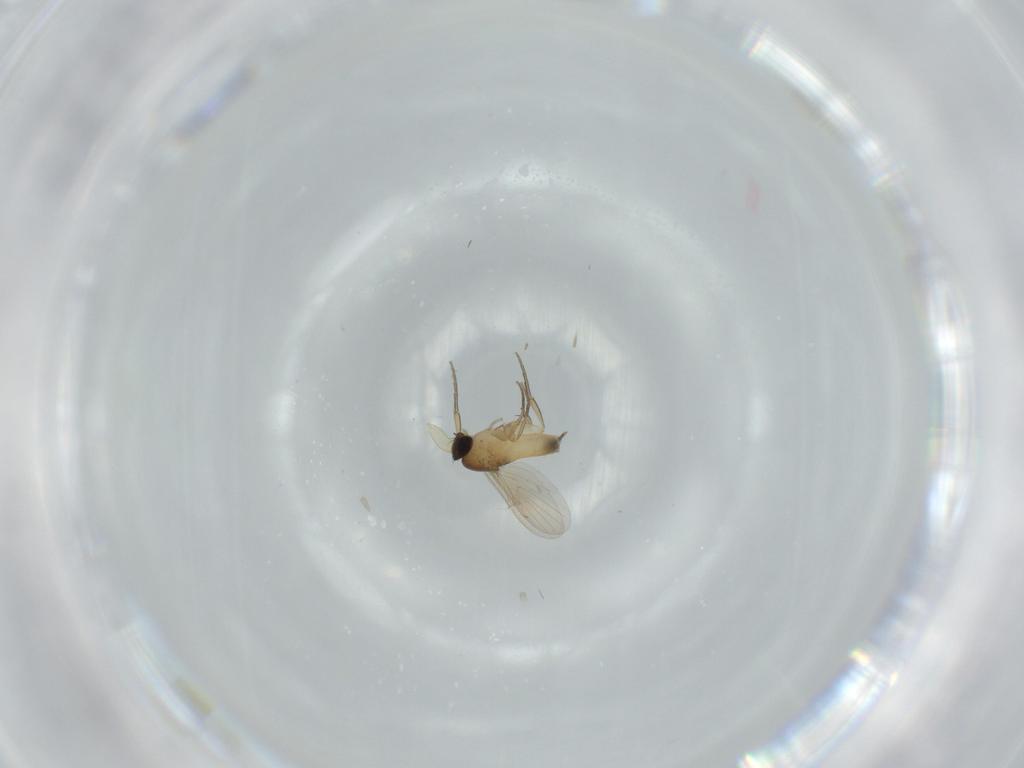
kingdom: Animalia
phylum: Arthropoda
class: Insecta
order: Diptera
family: Phoridae
